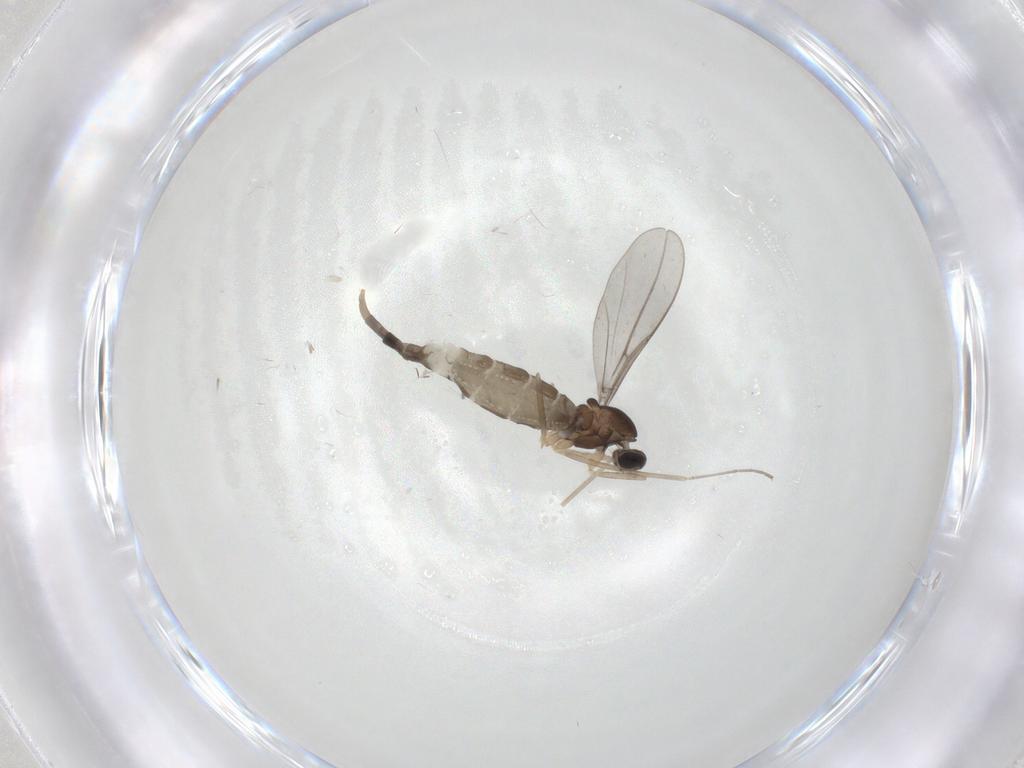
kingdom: Animalia
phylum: Arthropoda
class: Insecta
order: Diptera
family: Cecidomyiidae
